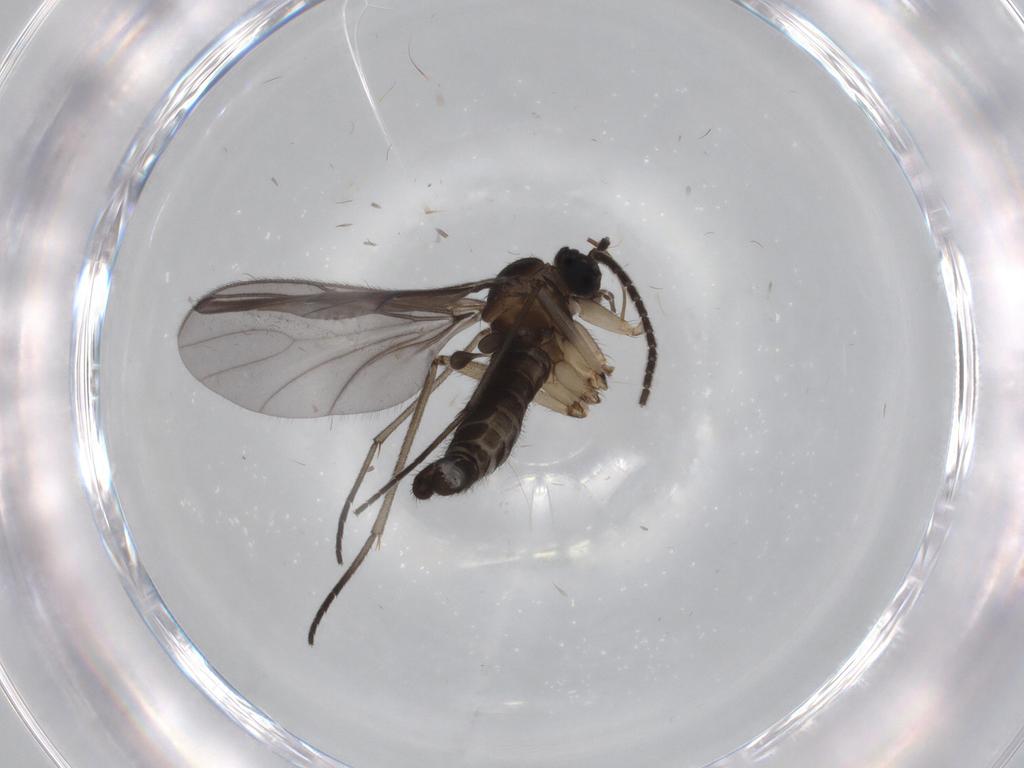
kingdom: Animalia
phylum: Arthropoda
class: Insecta
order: Diptera
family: Sciaridae
